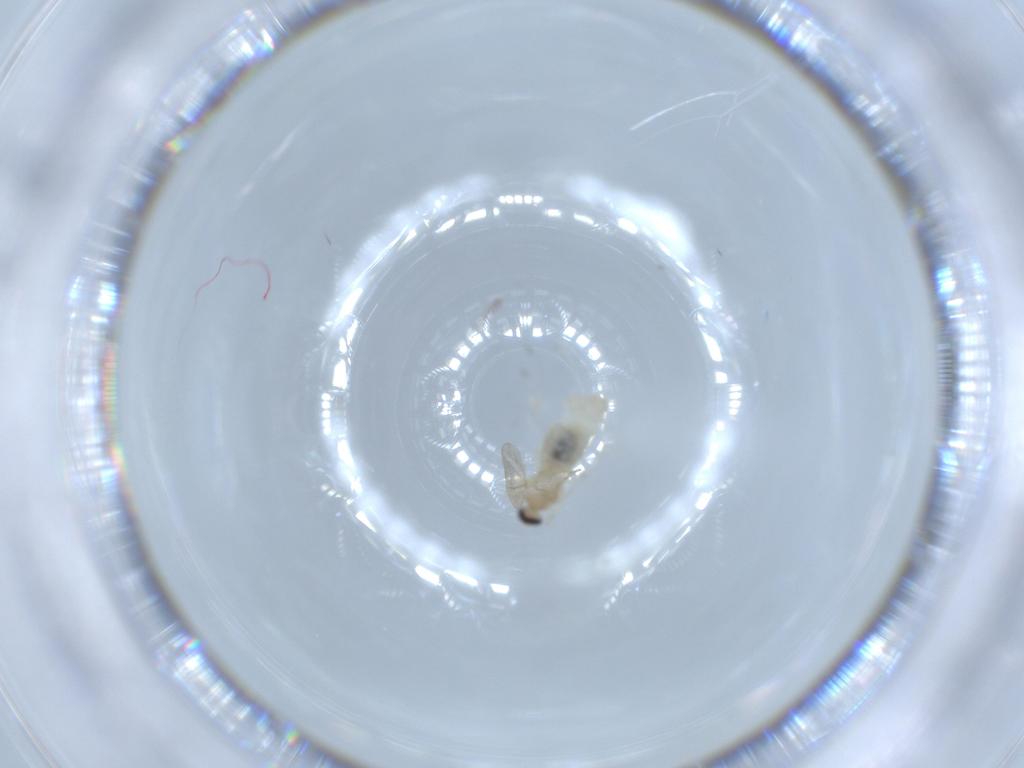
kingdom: Animalia
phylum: Arthropoda
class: Insecta
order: Diptera
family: Cecidomyiidae
